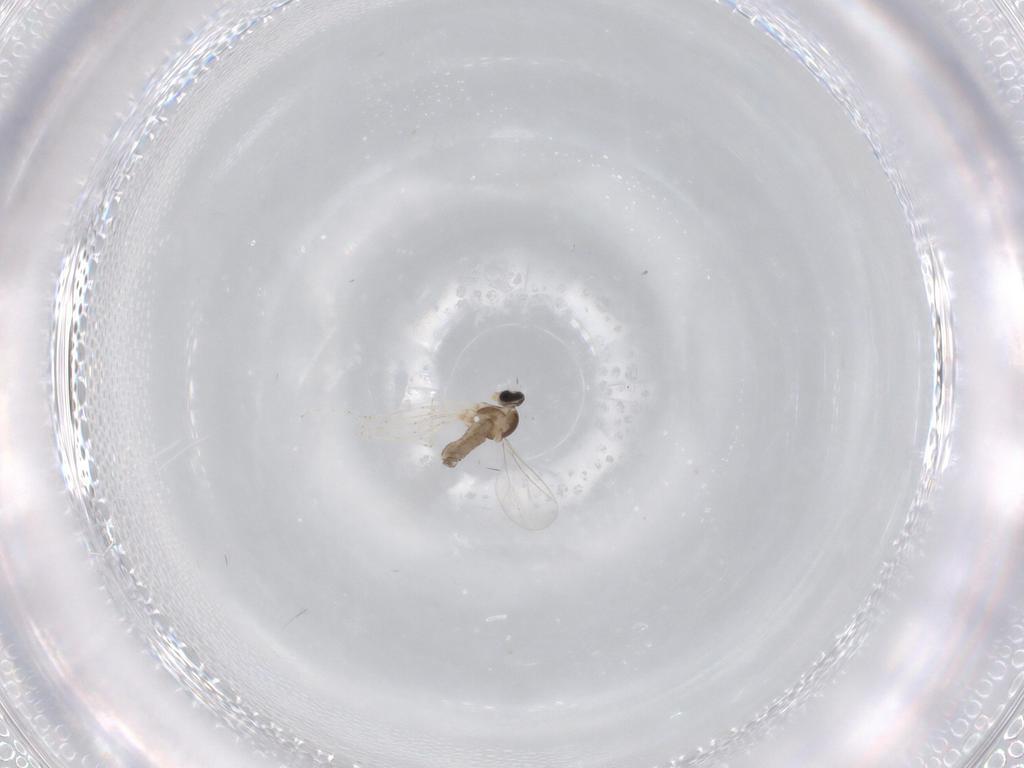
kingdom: Animalia
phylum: Arthropoda
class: Insecta
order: Diptera
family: Cecidomyiidae
